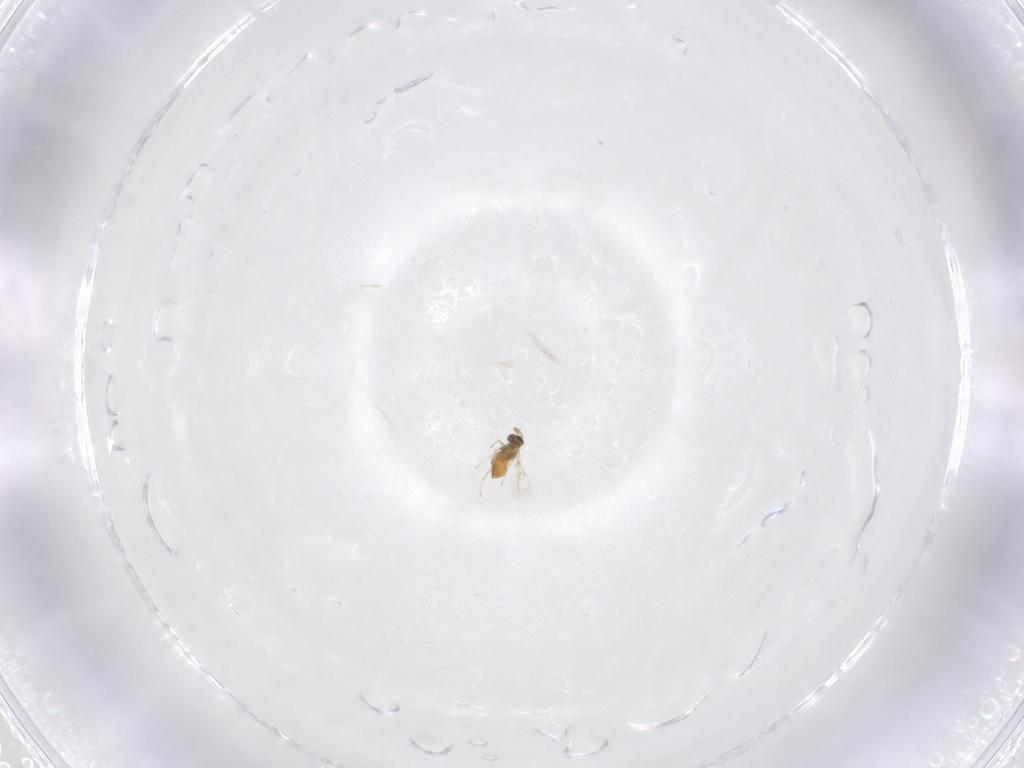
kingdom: Animalia
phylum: Arthropoda
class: Insecta
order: Hymenoptera
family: Trichogrammatidae
